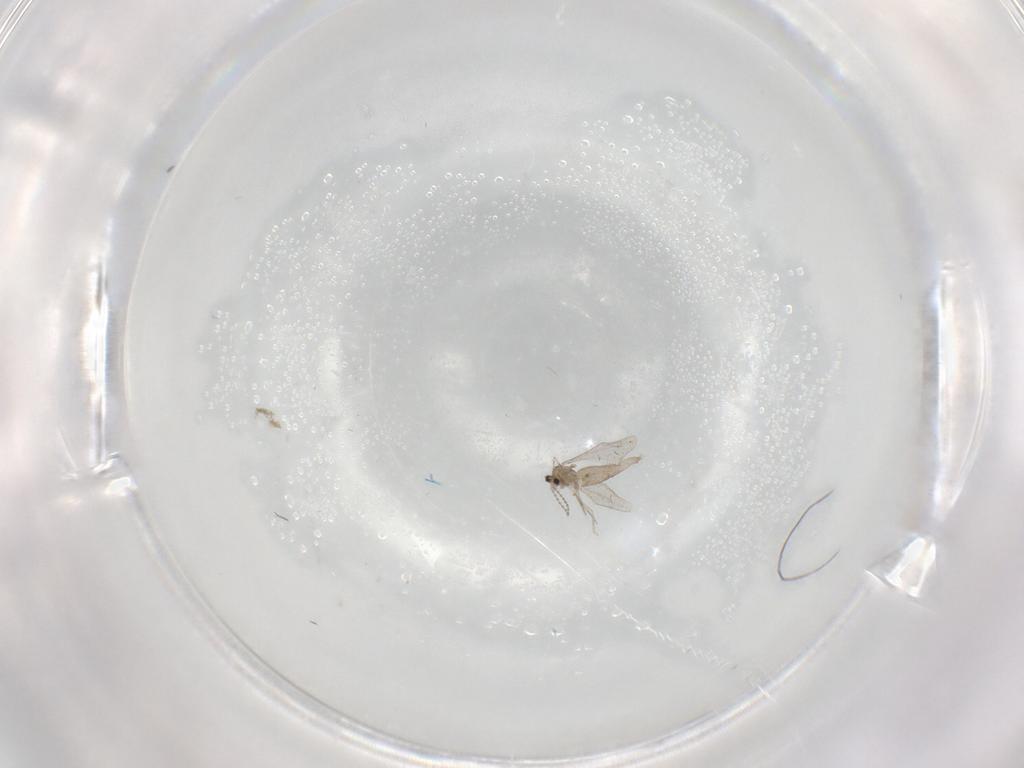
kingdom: Animalia
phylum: Arthropoda
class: Insecta
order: Diptera
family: Cecidomyiidae
